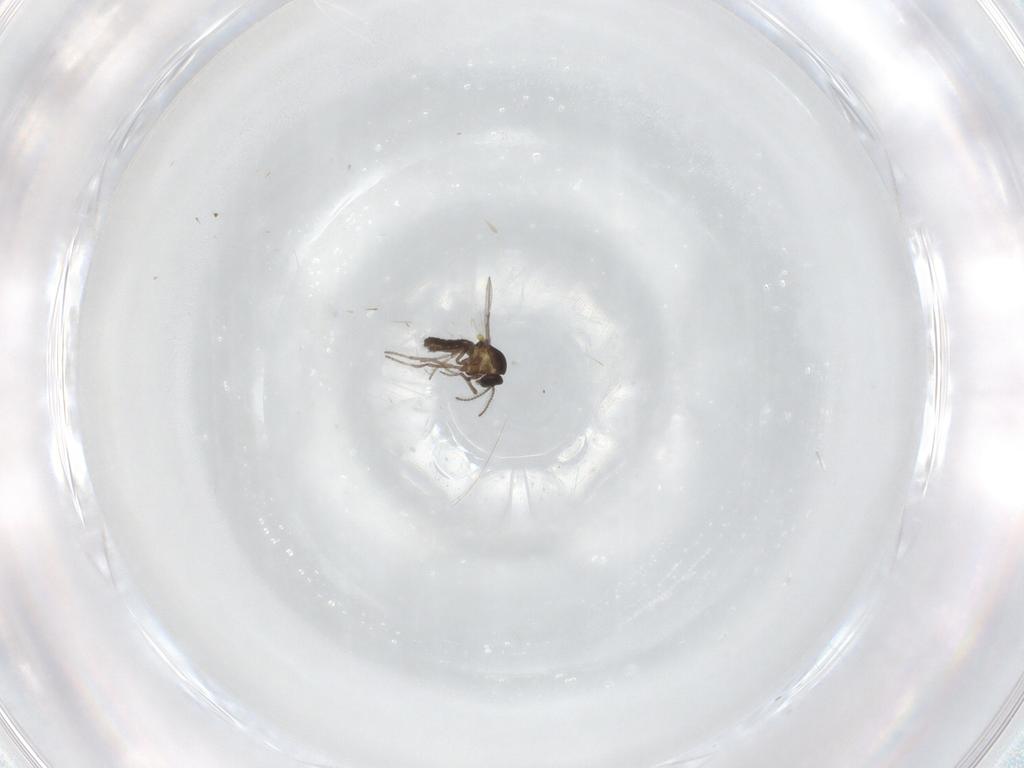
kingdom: Animalia
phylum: Arthropoda
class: Insecta
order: Diptera
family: Ceratopogonidae
